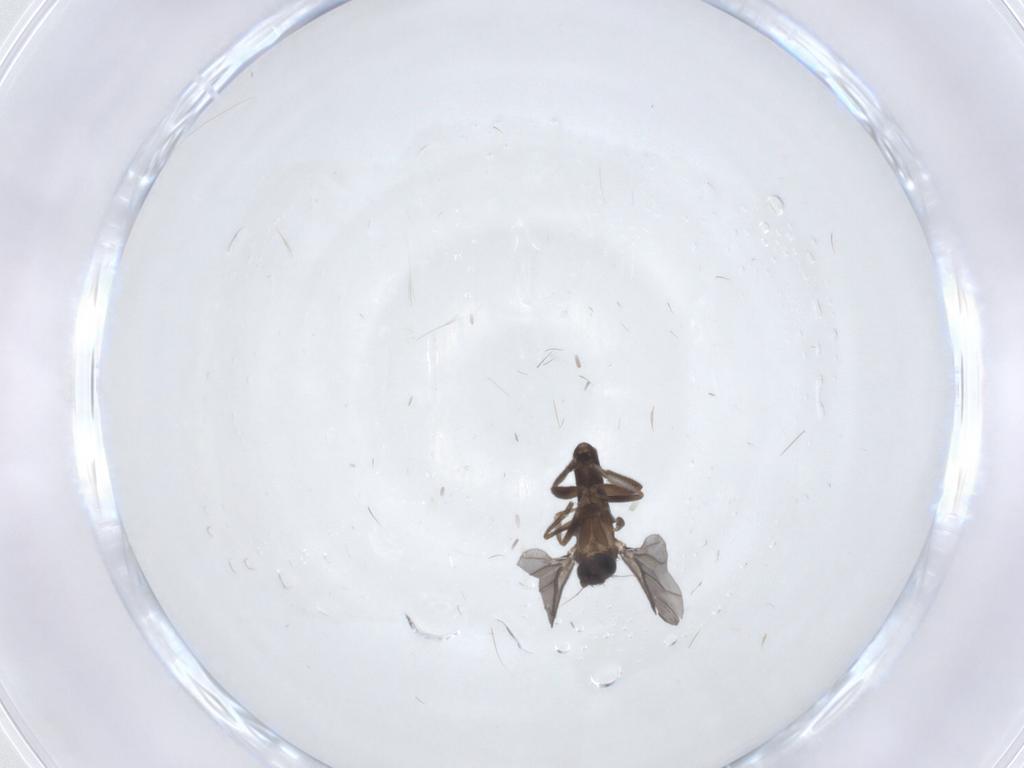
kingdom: Animalia
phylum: Arthropoda
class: Insecta
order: Diptera
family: Phoridae
